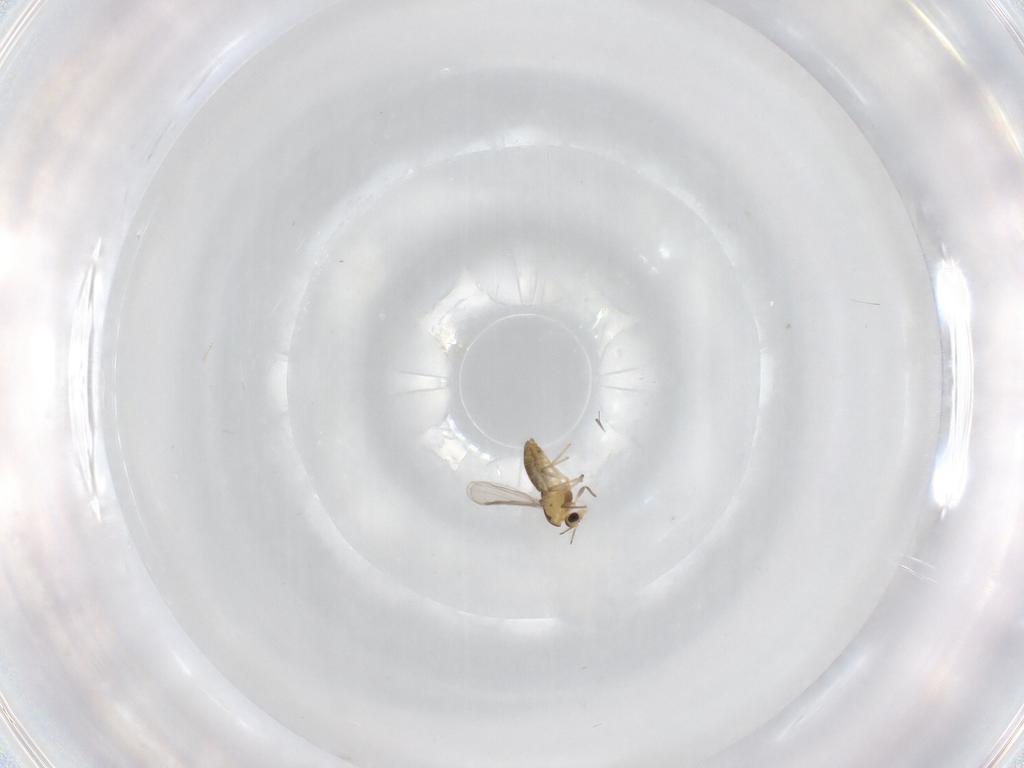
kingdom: Animalia
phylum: Arthropoda
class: Insecta
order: Diptera
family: Chironomidae
